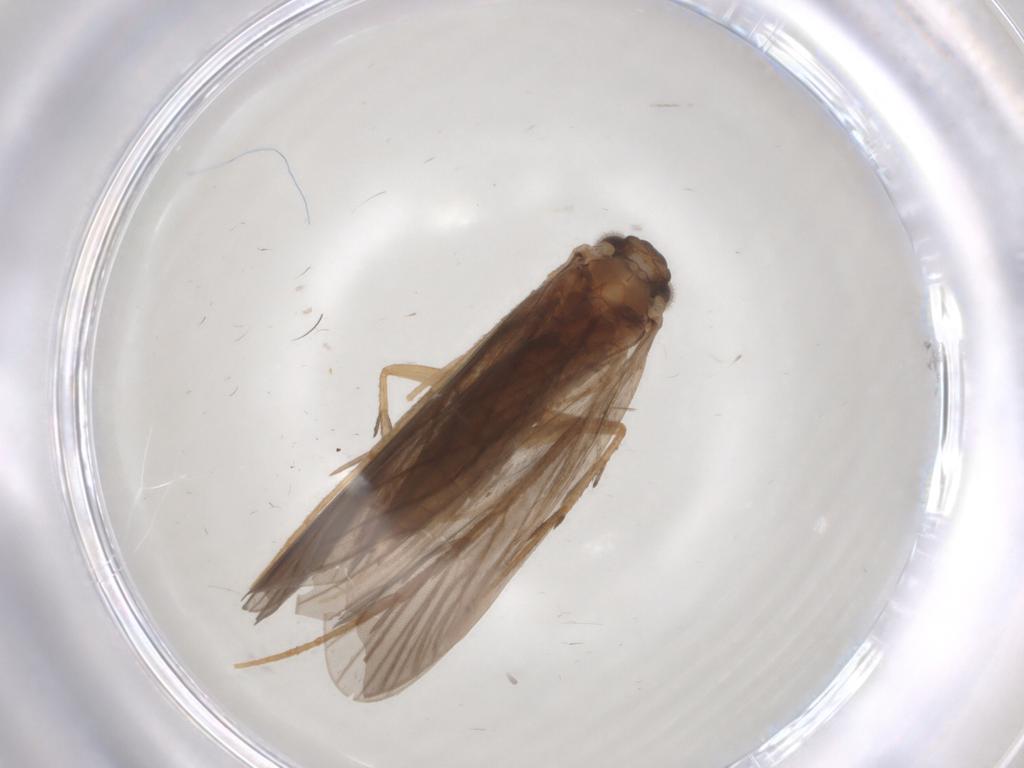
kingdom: Animalia
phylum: Arthropoda
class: Insecta
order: Trichoptera
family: Philopotamidae
